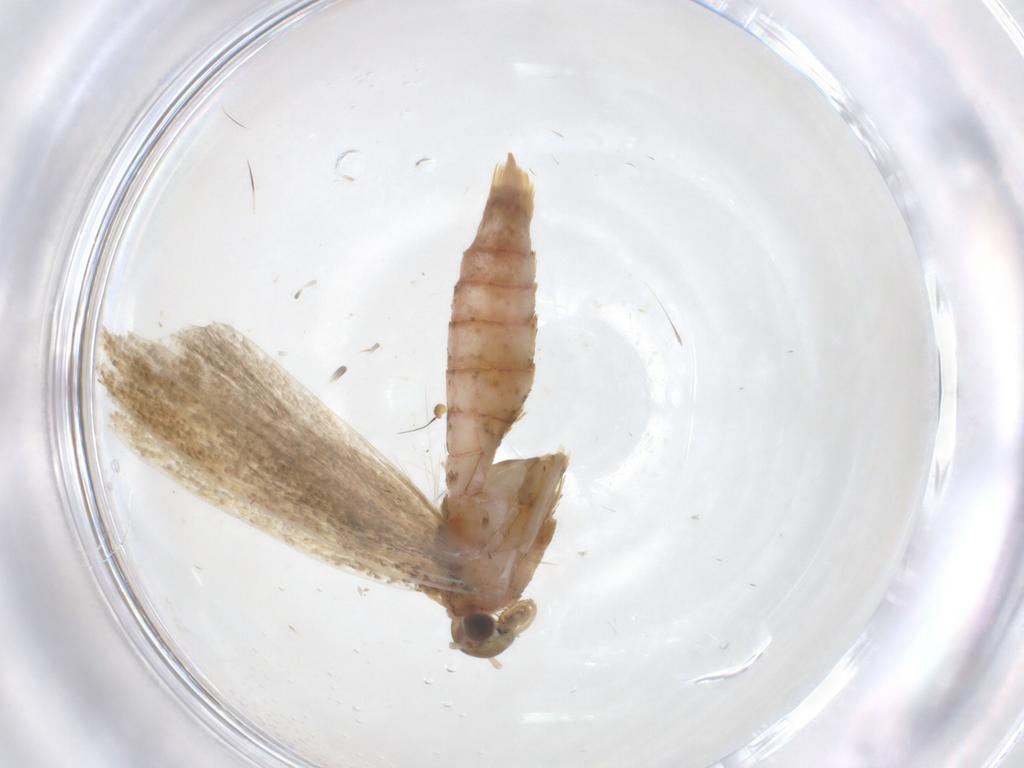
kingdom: Animalia
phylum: Arthropoda
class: Insecta
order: Lepidoptera
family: Crambidae
